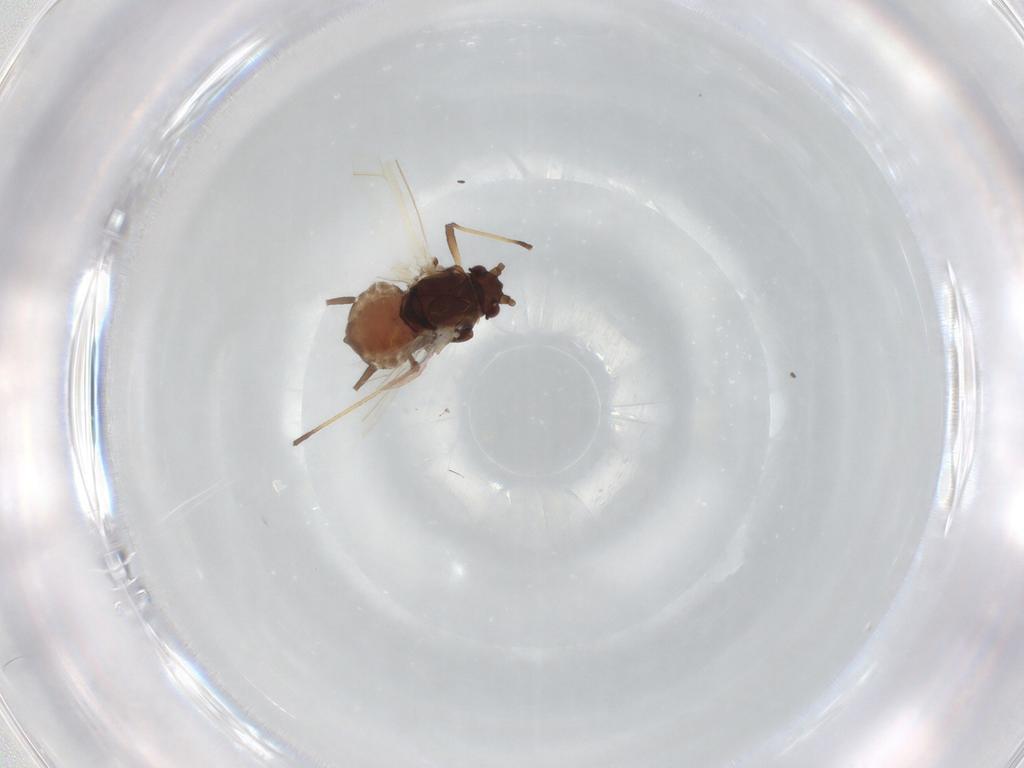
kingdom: Animalia
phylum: Arthropoda
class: Insecta
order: Hemiptera
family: Aphididae
